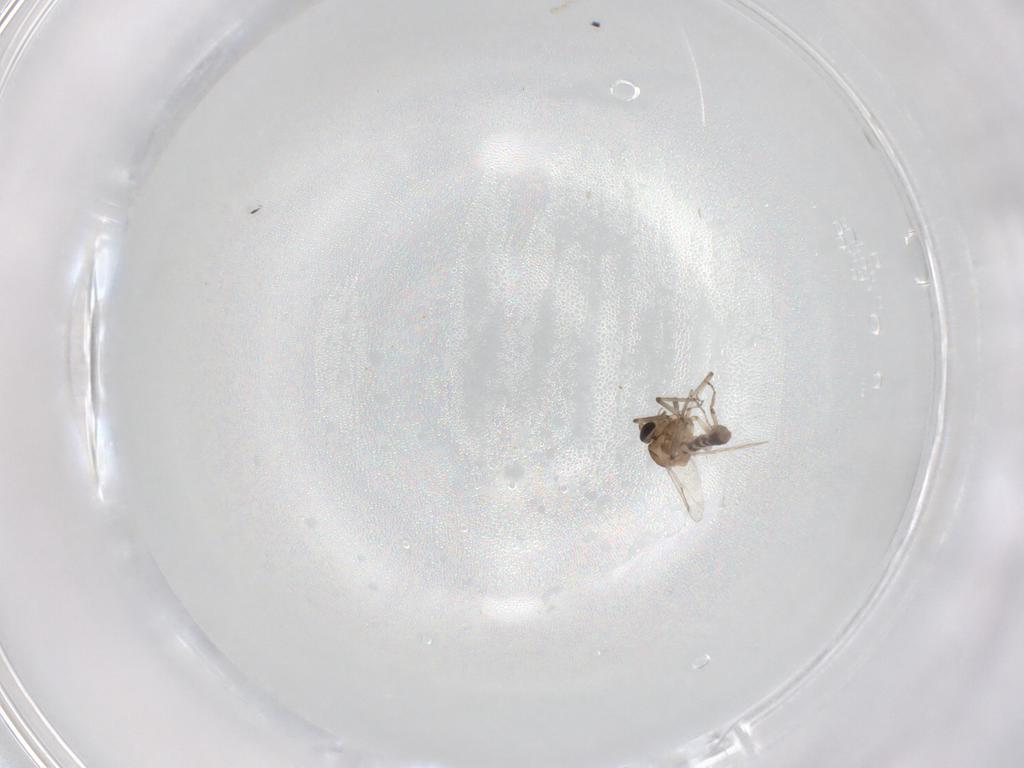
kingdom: Animalia
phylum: Arthropoda
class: Insecta
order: Diptera
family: Ceratopogonidae
